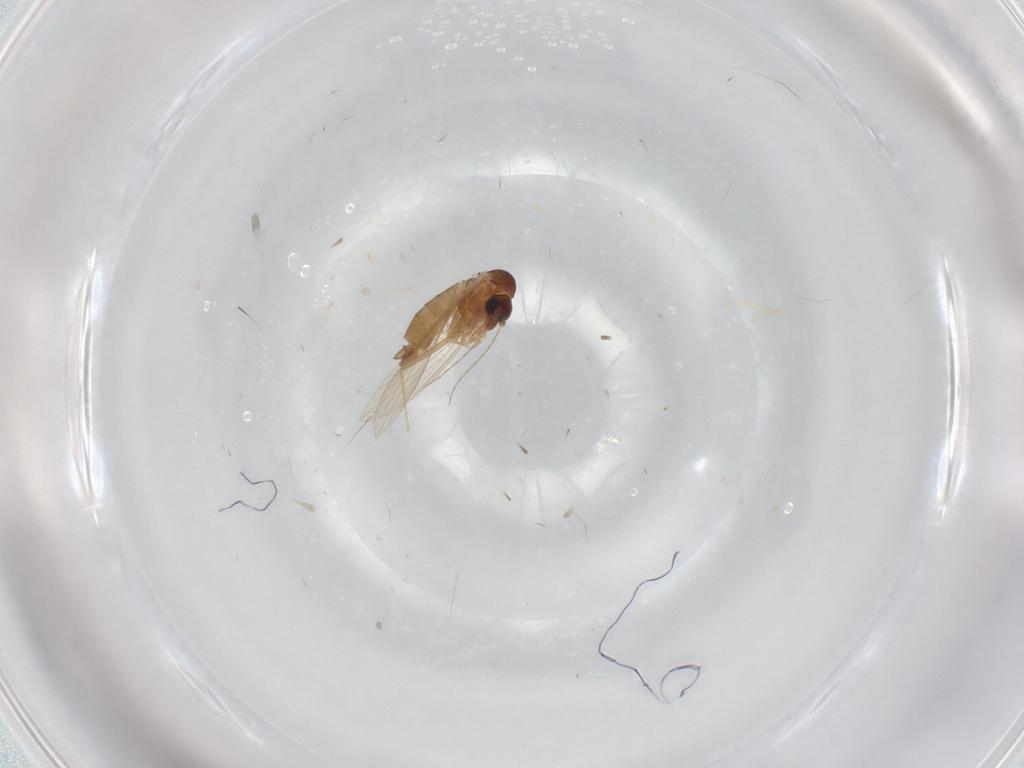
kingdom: Animalia
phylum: Arthropoda
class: Insecta
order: Diptera
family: Psychodidae
